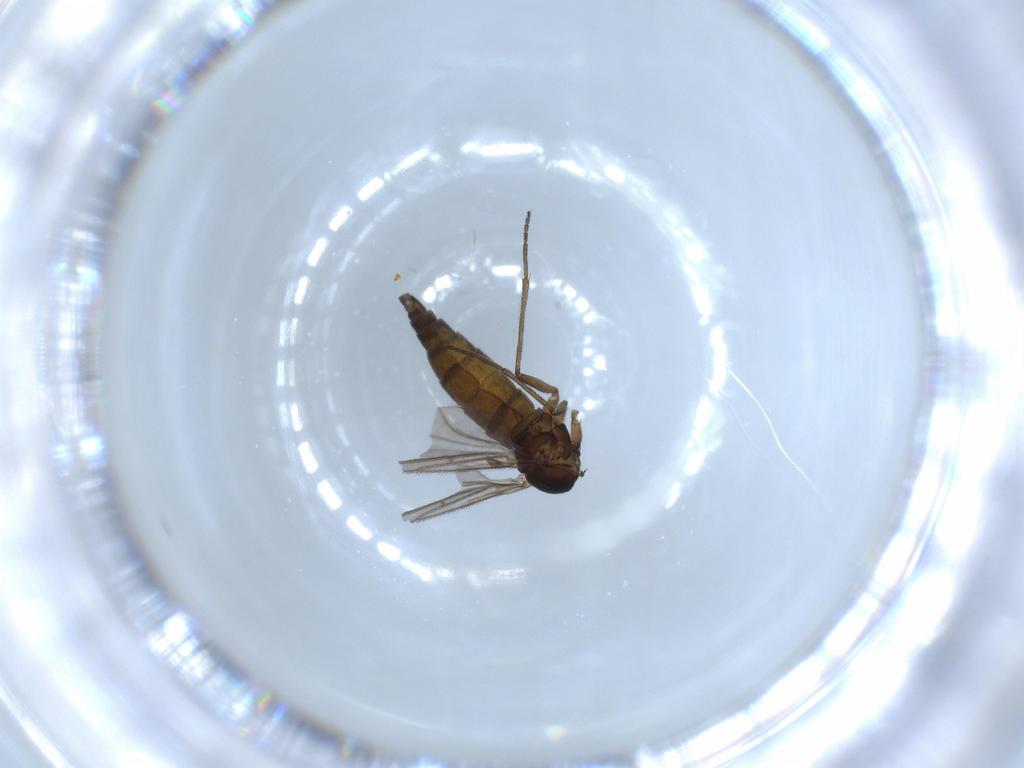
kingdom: Animalia
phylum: Arthropoda
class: Insecta
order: Diptera
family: Sciaridae
